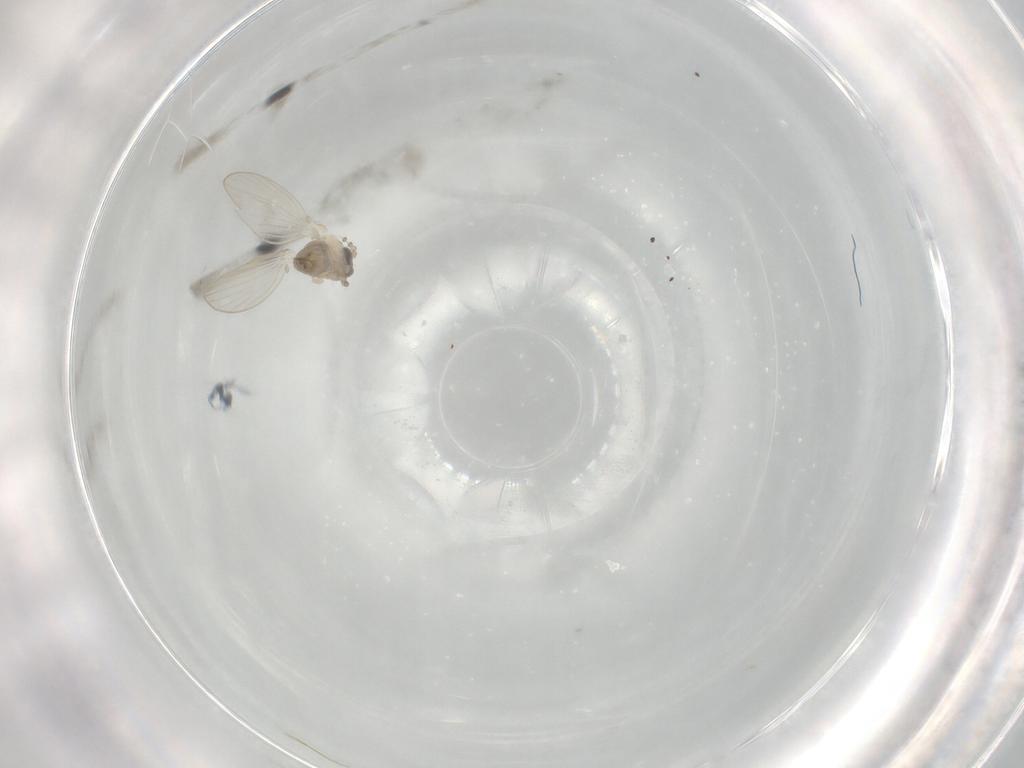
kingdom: Animalia
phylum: Arthropoda
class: Insecta
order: Diptera
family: Psychodidae
